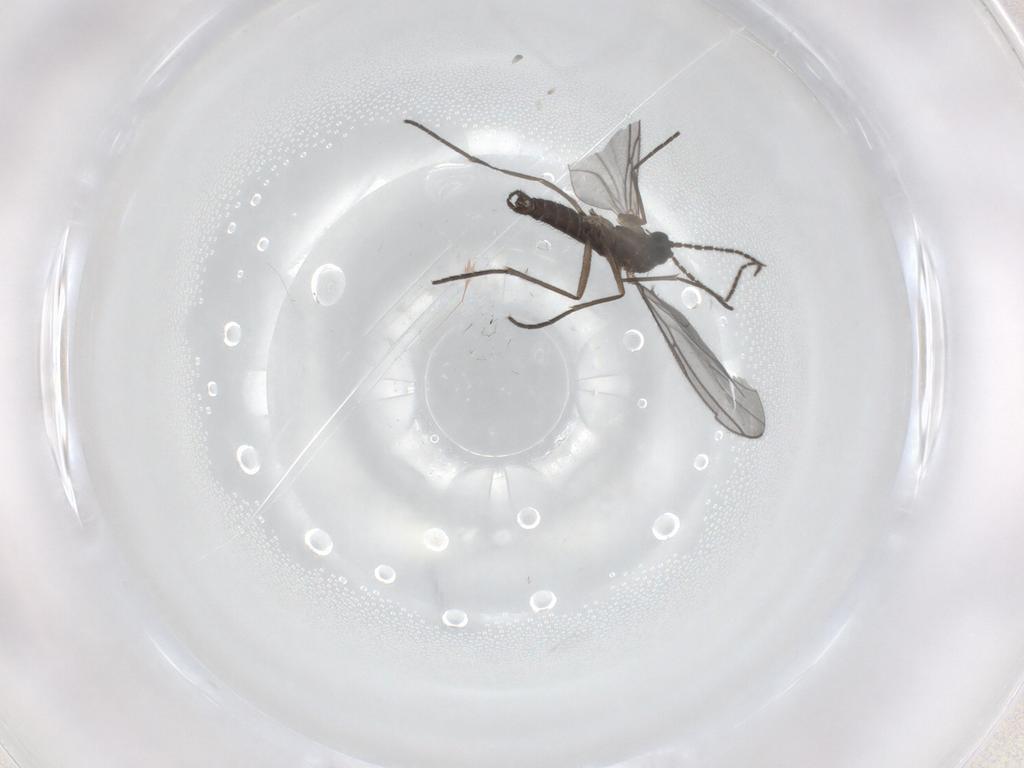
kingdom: Animalia
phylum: Arthropoda
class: Insecta
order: Diptera
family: Sciaridae
